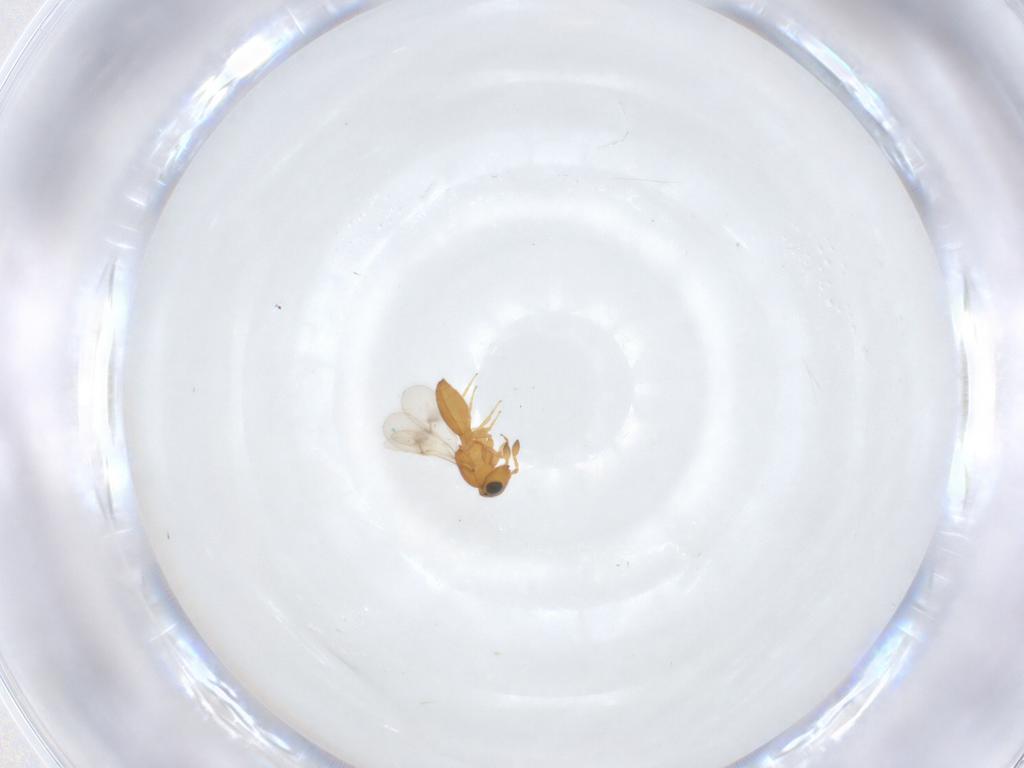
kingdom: Animalia
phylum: Arthropoda
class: Insecta
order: Hymenoptera
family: Scelionidae
